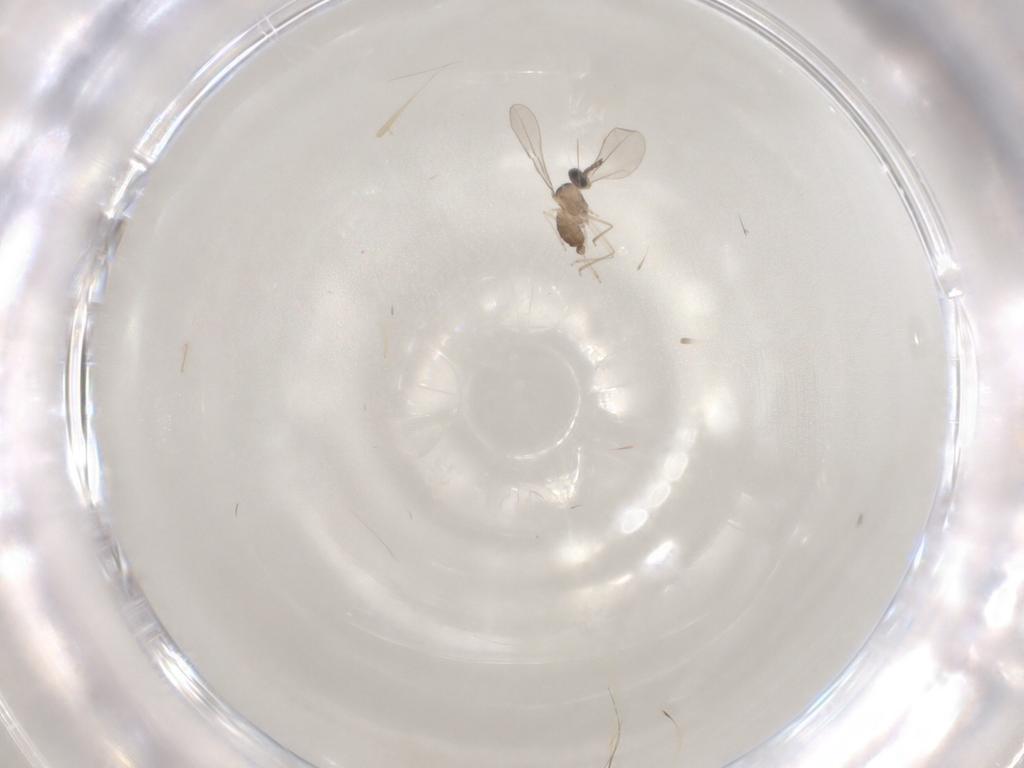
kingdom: Animalia
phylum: Arthropoda
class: Insecta
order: Diptera
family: Cecidomyiidae
